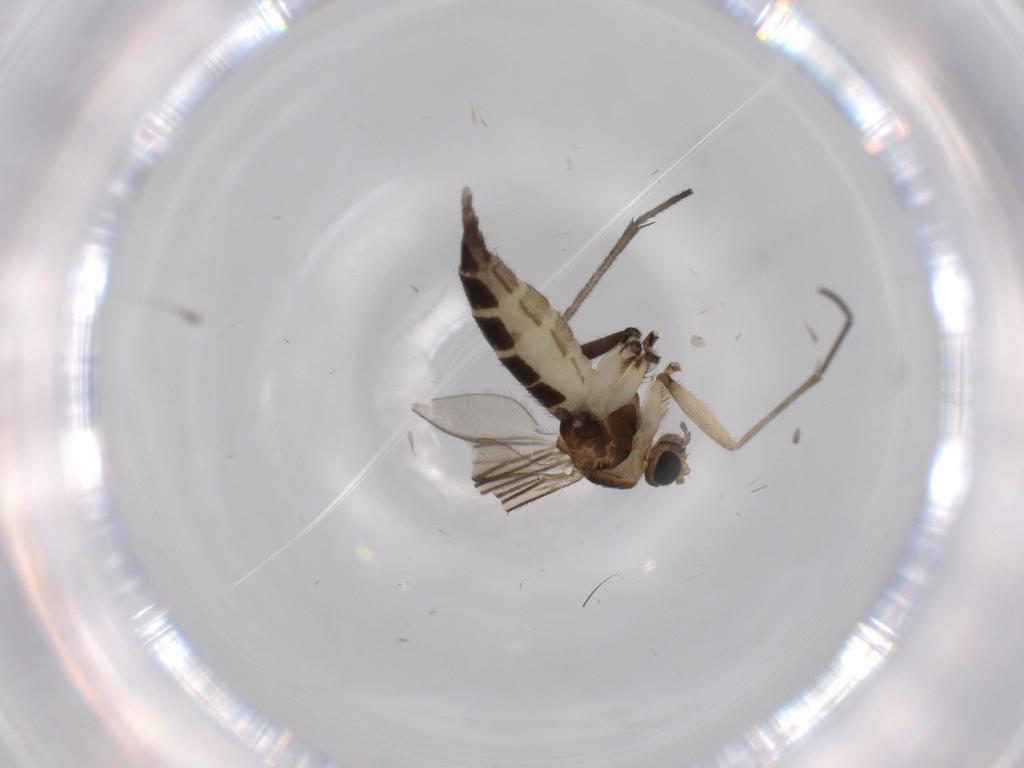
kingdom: Animalia
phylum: Arthropoda
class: Insecta
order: Diptera
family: Sciaridae
